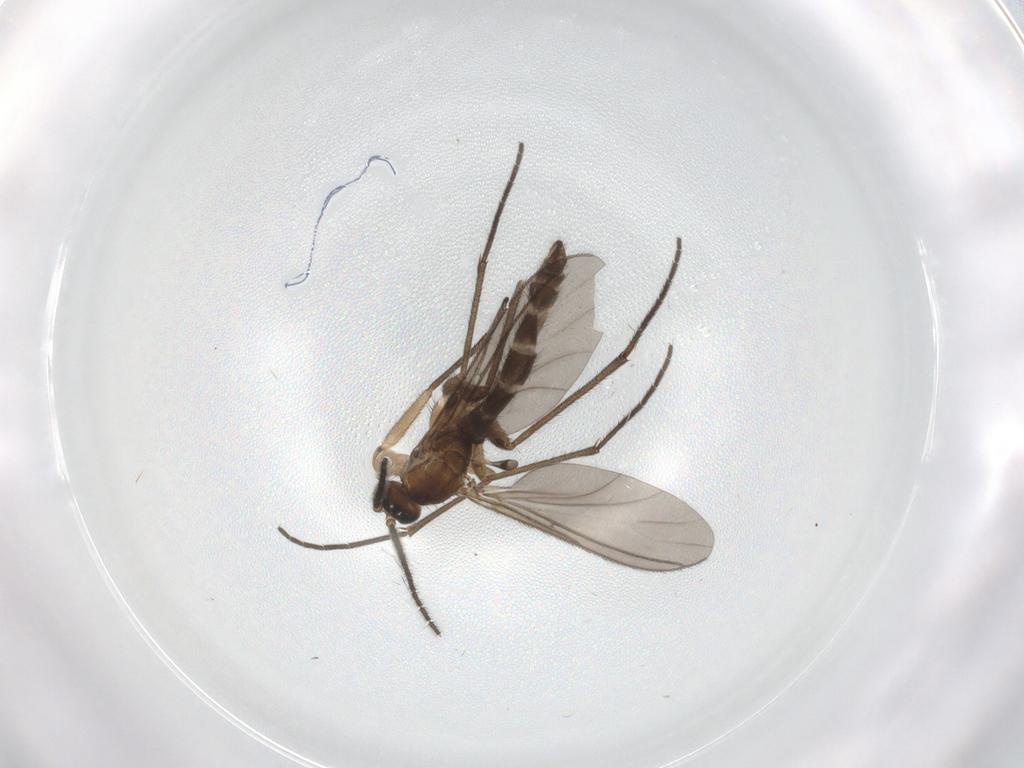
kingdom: Animalia
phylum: Arthropoda
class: Insecta
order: Diptera
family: Sciaridae
